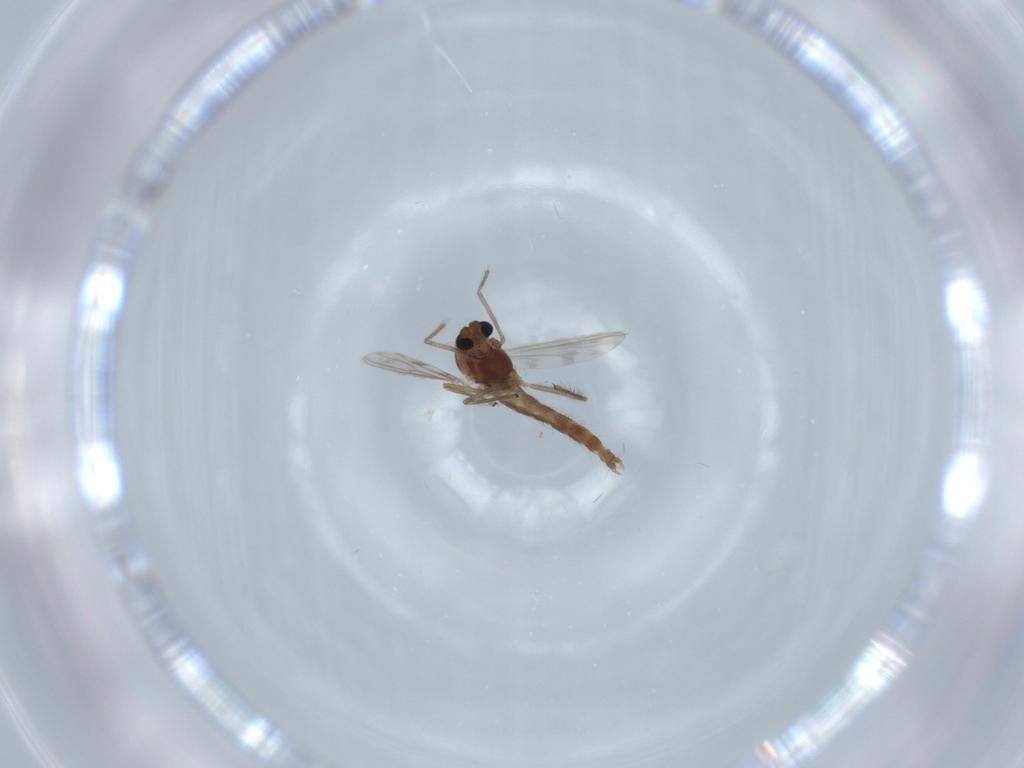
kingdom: Animalia
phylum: Arthropoda
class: Insecta
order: Diptera
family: Chironomidae
